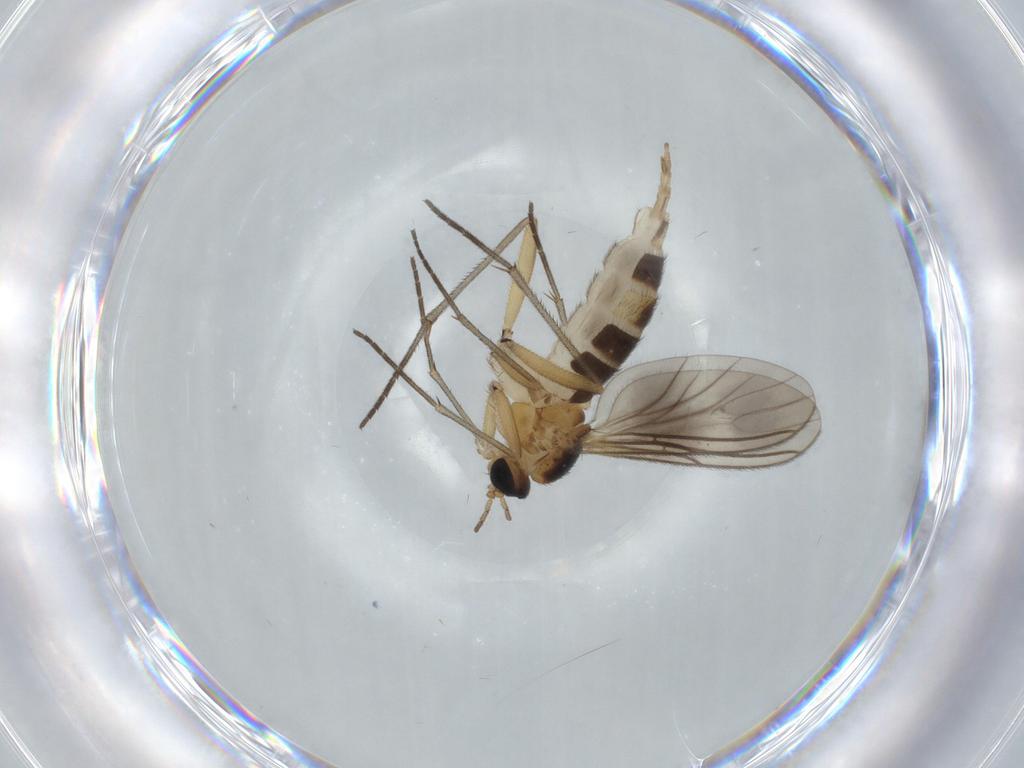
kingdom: Animalia
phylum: Arthropoda
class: Insecta
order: Diptera
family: Sciaridae
